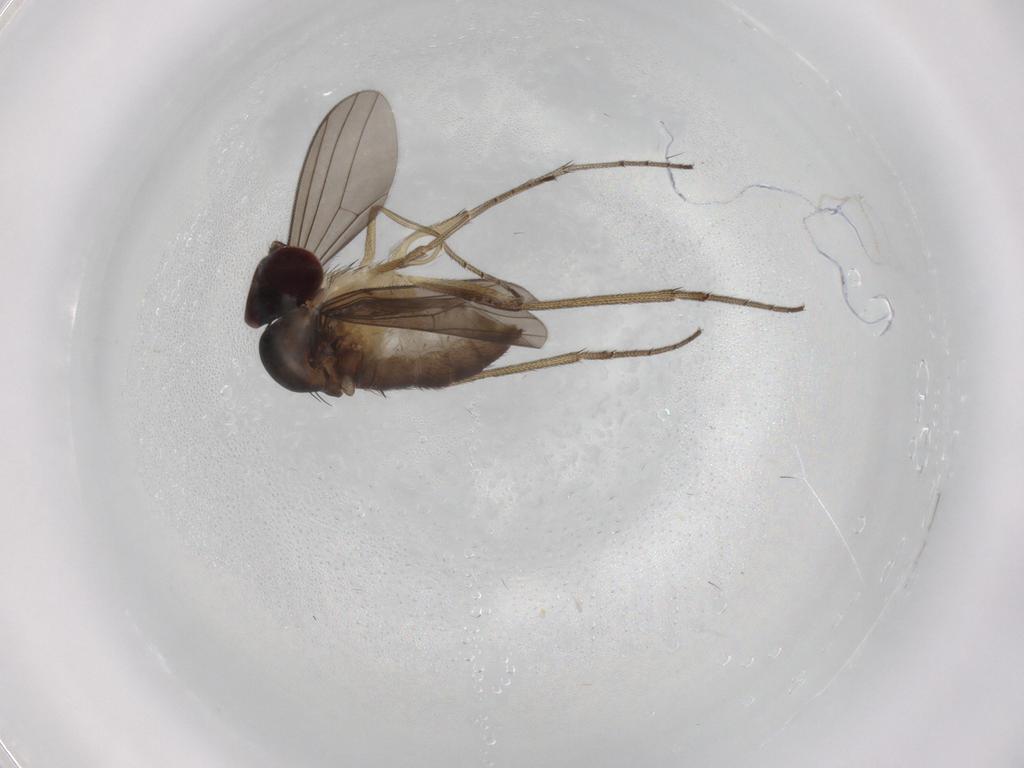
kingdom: Animalia
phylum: Arthropoda
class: Insecta
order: Diptera
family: Dolichopodidae
